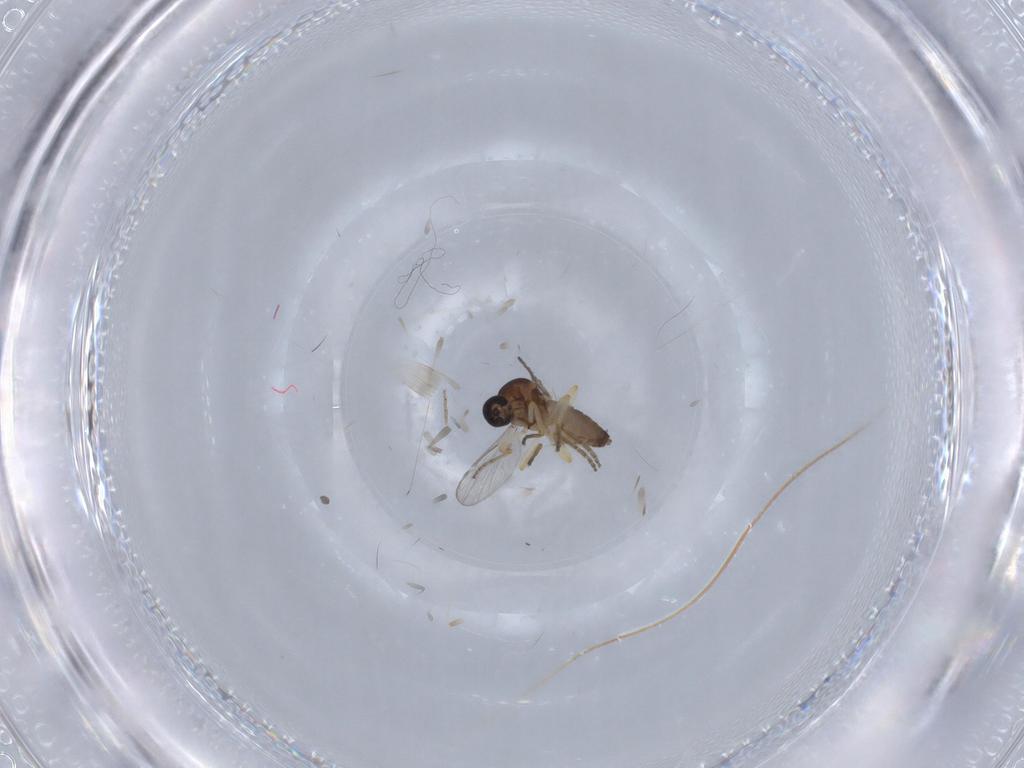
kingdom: Animalia
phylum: Arthropoda
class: Insecta
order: Diptera
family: Ceratopogonidae
